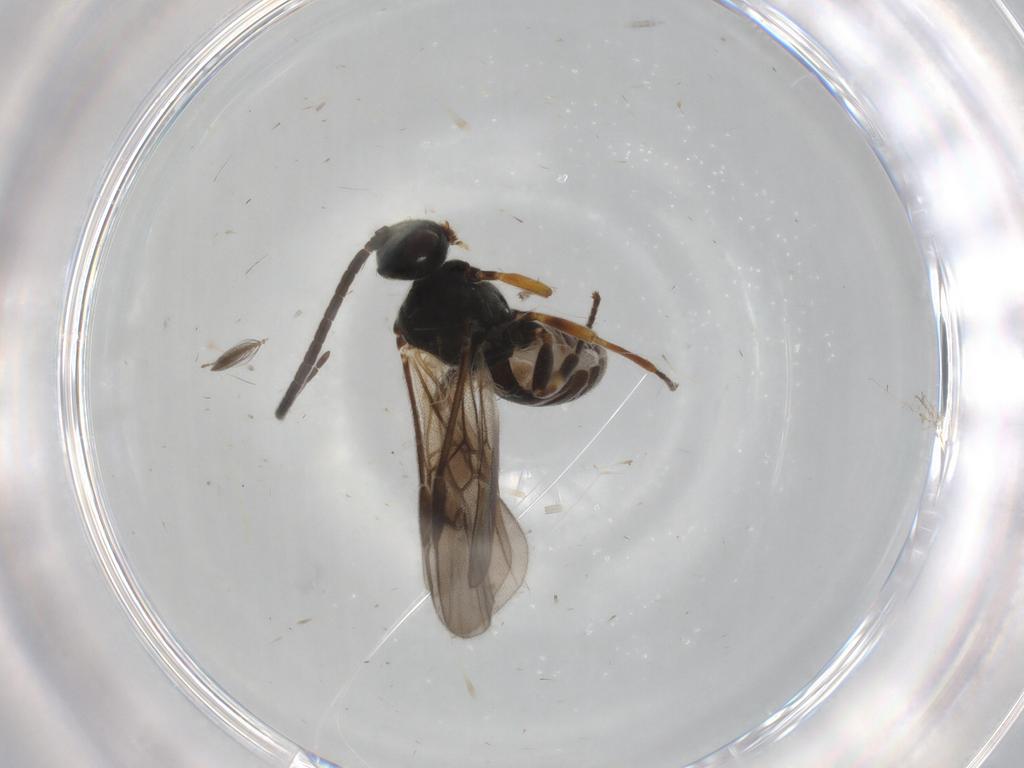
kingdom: Animalia
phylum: Arthropoda
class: Insecta
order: Hymenoptera
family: Braconidae
